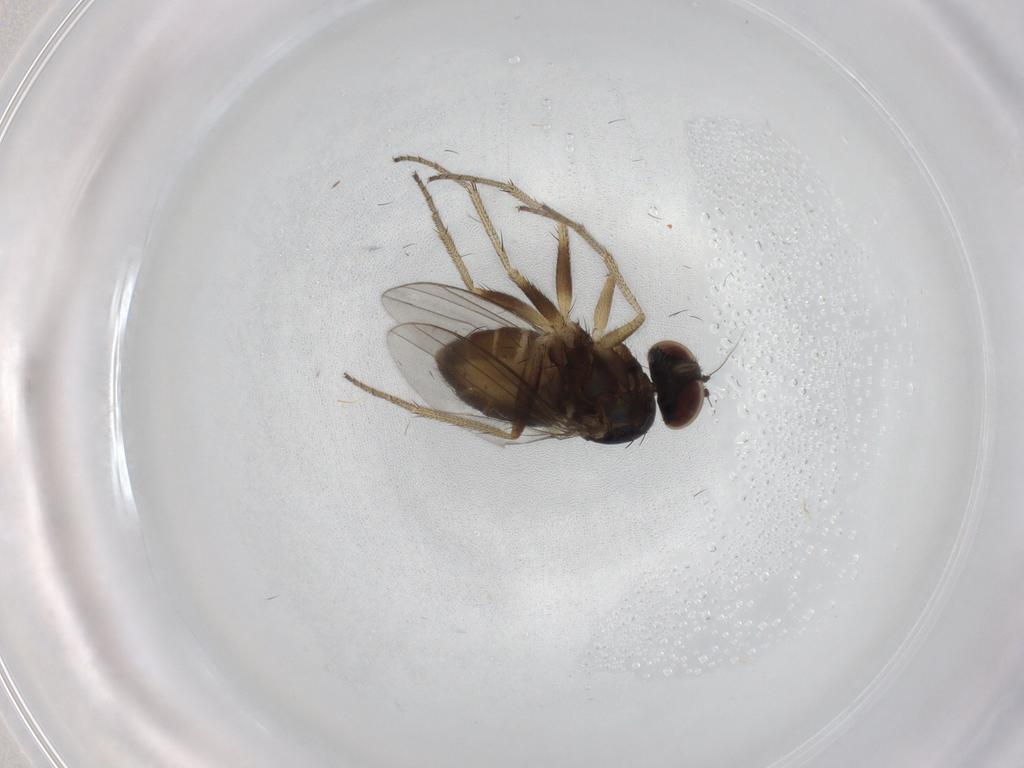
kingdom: Animalia
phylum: Arthropoda
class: Insecta
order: Diptera
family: Dolichopodidae
